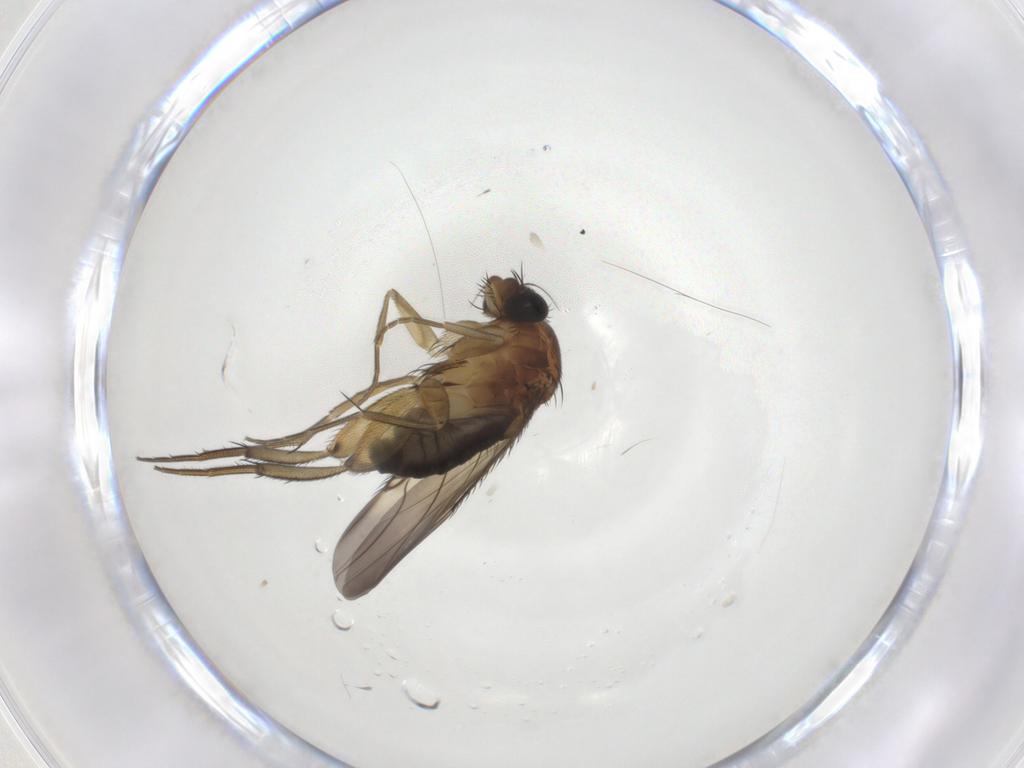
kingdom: Animalia
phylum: Arthropoda
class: Insecta
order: Diptera
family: Phoridae
